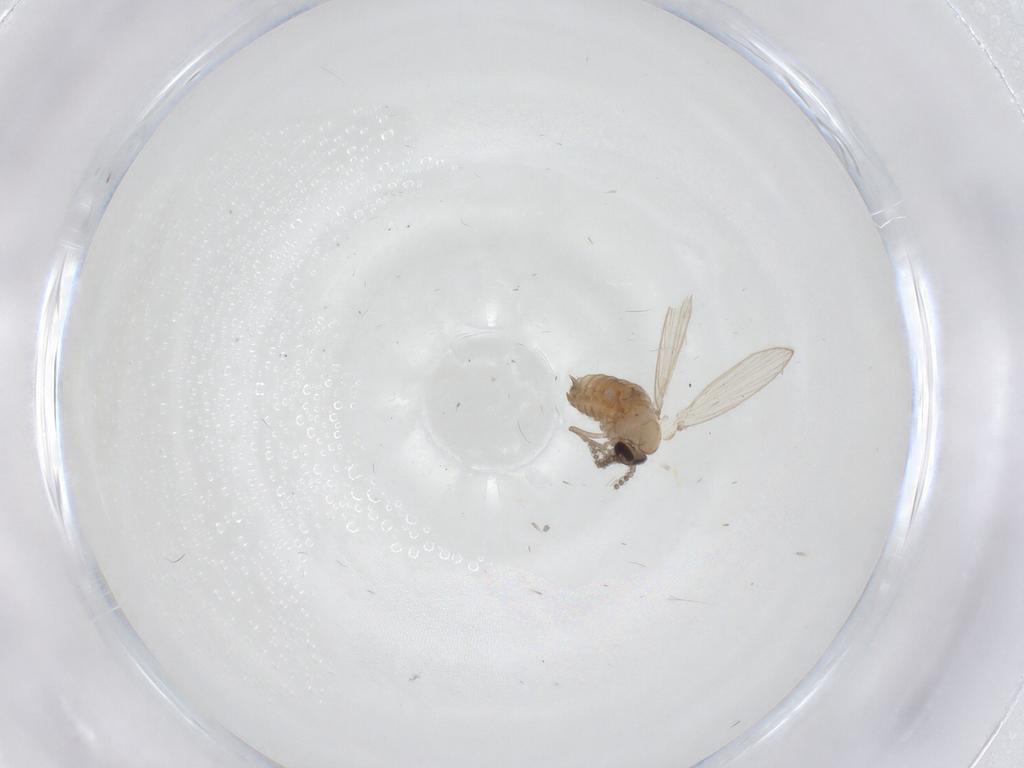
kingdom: Animalia
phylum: Arthropoda
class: Insecta
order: Diptera
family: Psychodidae
